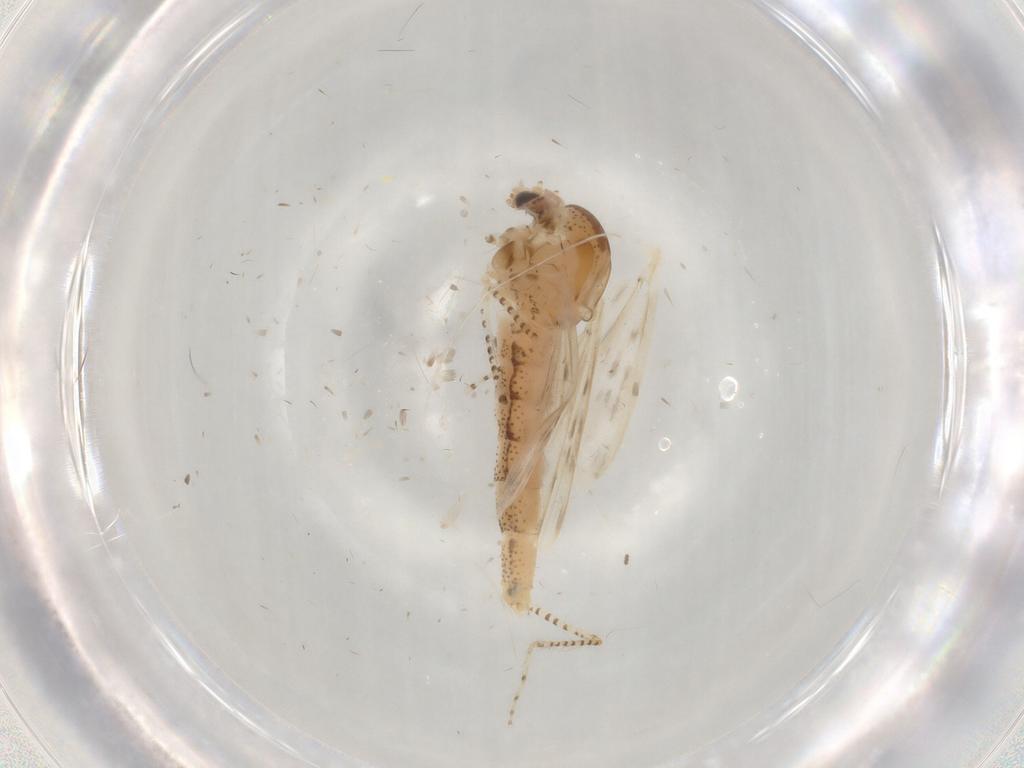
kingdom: Animalia
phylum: Arthropoda
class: Insecta
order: Diptera
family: Chaoboridae
